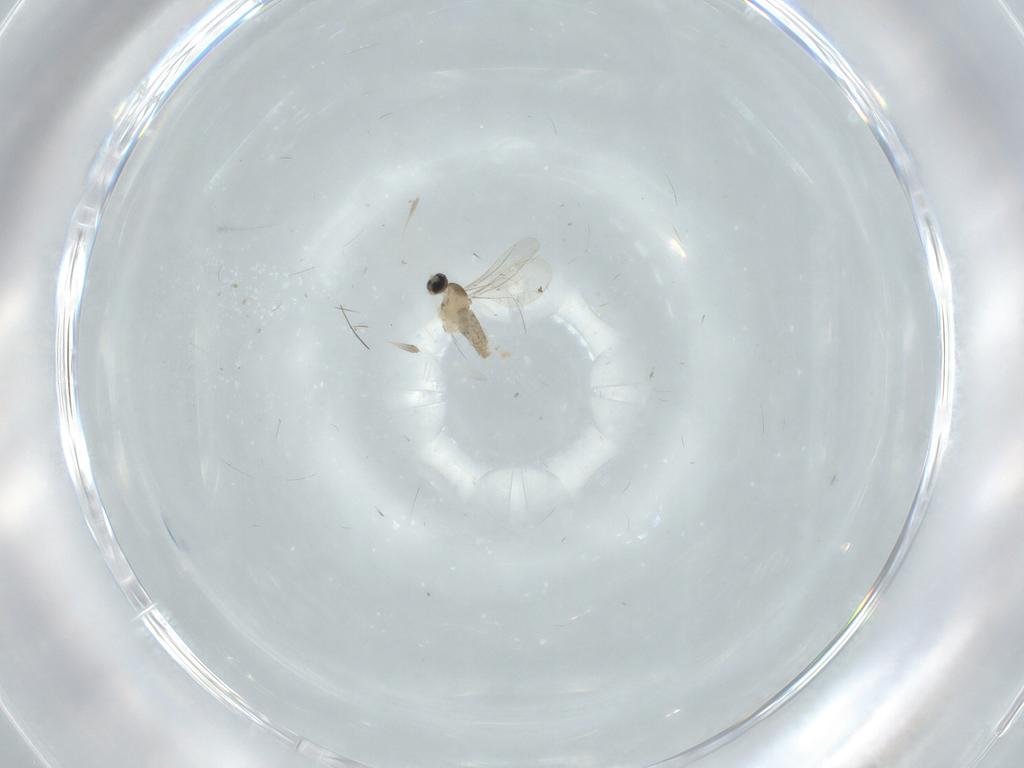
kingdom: Animalia
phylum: Arthropoda
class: Insecta
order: Diptera
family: Cecidomyiidae
